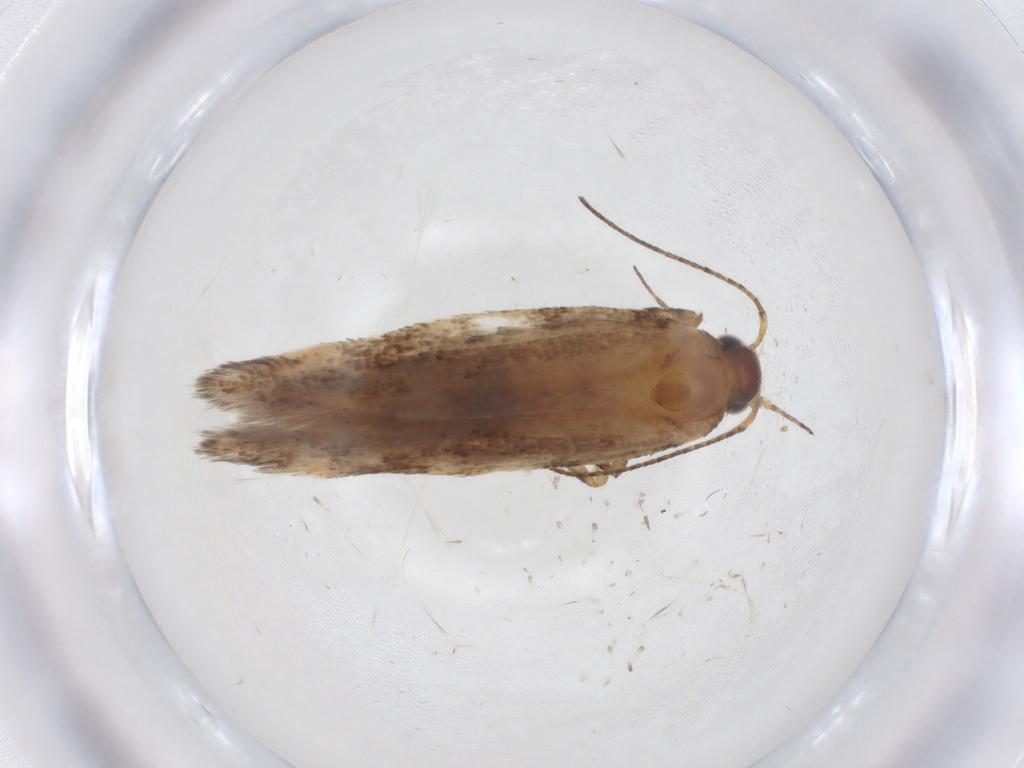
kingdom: Animalia
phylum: Arthropoda
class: Insecta
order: Lepidoptera
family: Gelechiidae
